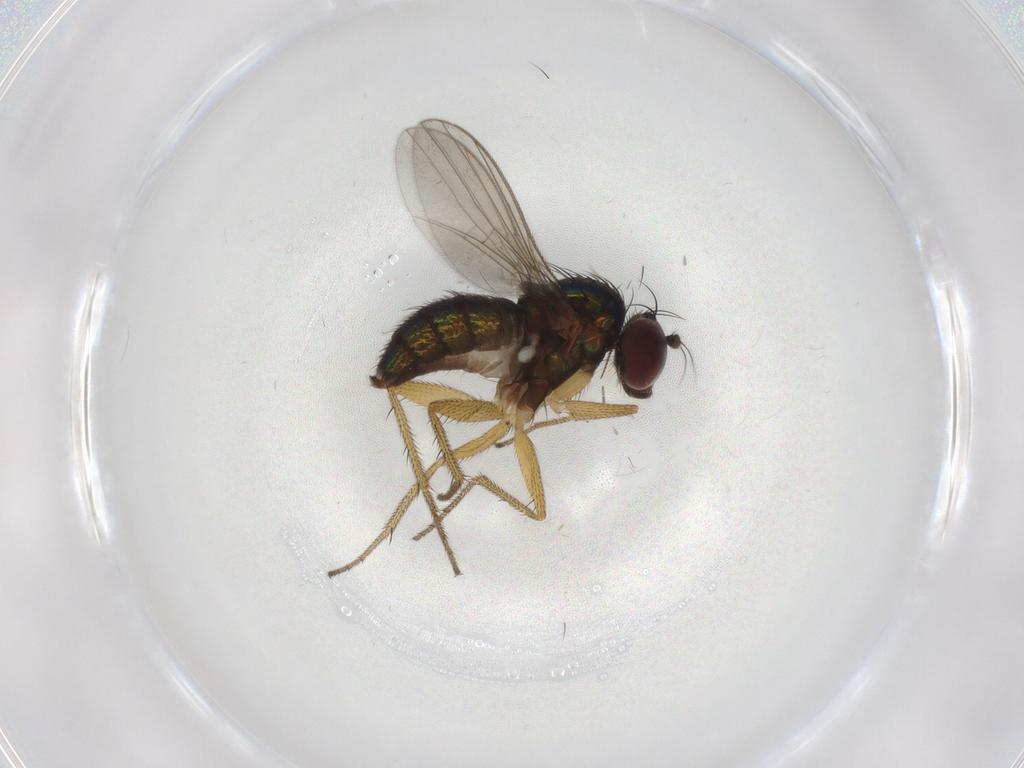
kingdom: Animalia
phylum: Arthropoda
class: Insecta
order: Diptera
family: Dolichopodidae
